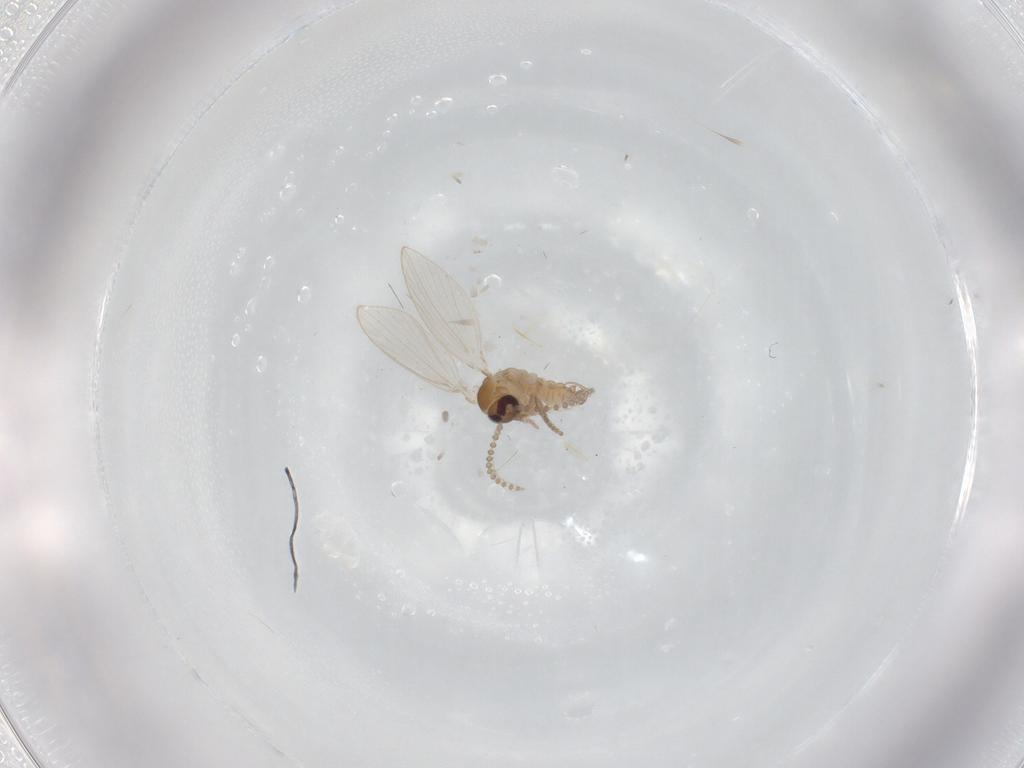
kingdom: Animalia
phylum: Arthropoda
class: Insecta
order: Diptera
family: Psychodidae
